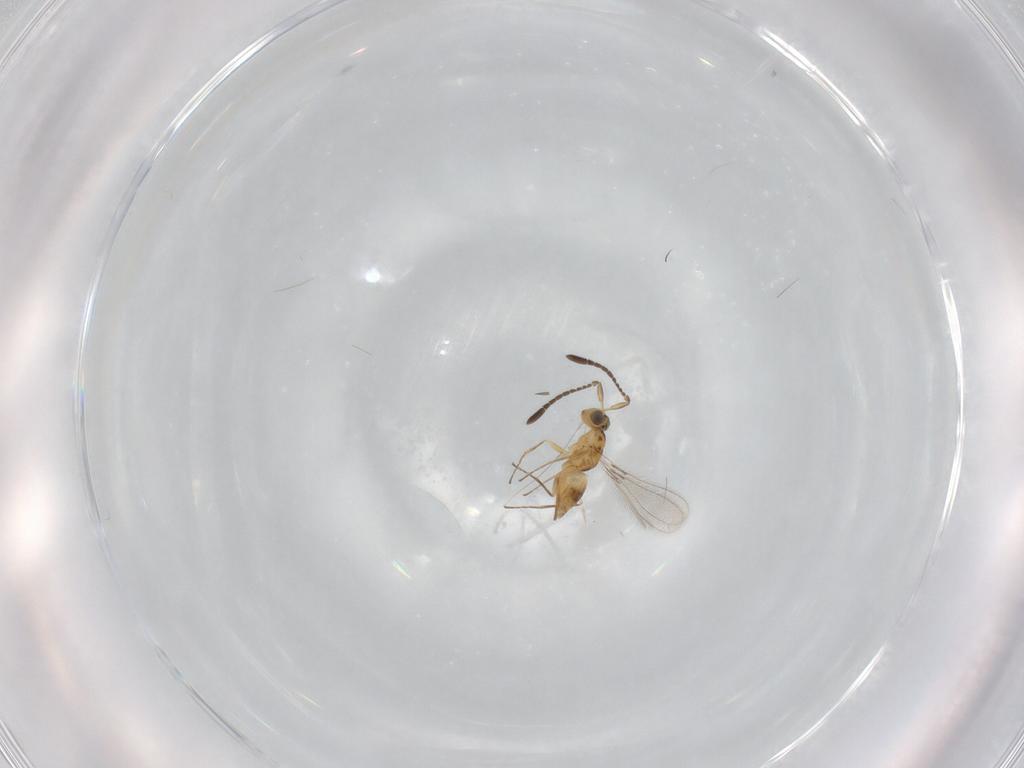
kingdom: Animalia
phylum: Arthropoda
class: Insecta
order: Hymenoptera
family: Mymaridae
